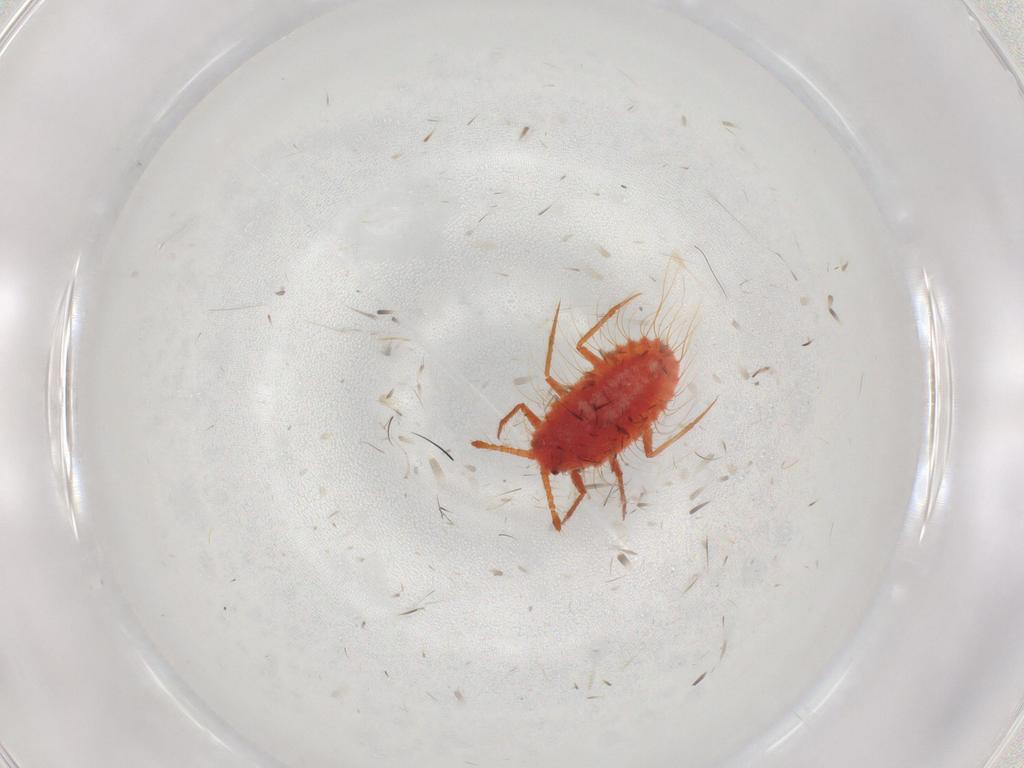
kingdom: Animalia
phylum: Arthropoda
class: Insecta
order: Hemiptera
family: Cicadellidae
